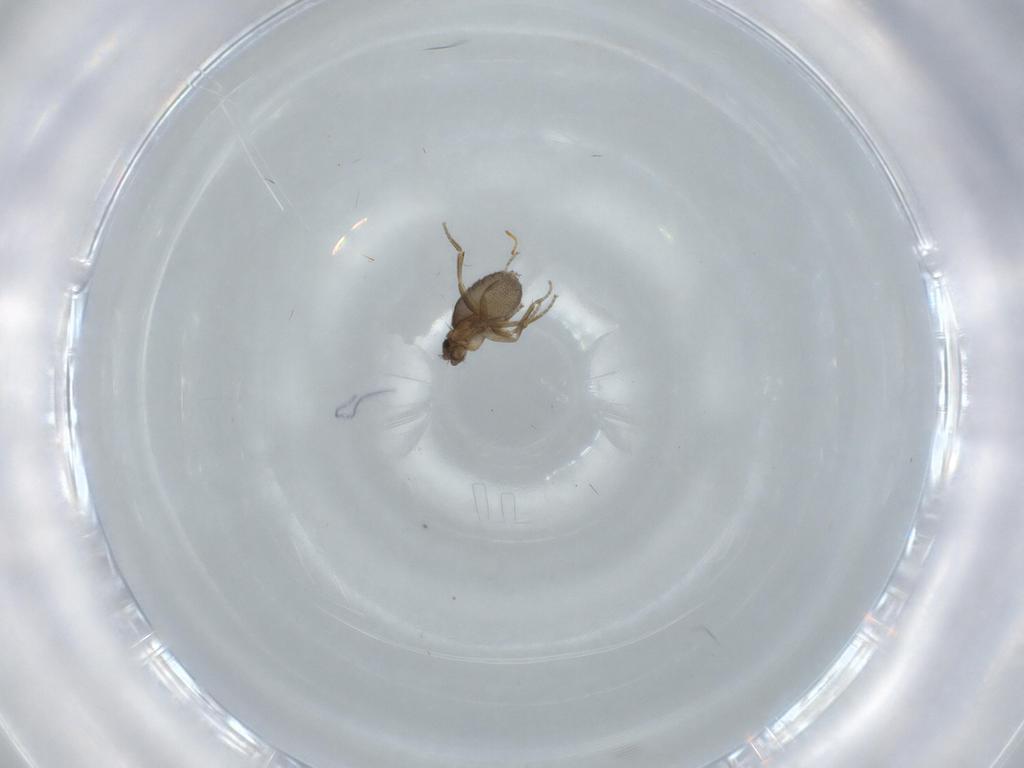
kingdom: Animalia
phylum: Arthropoda
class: Insecta
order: Diptera
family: Phoridae
